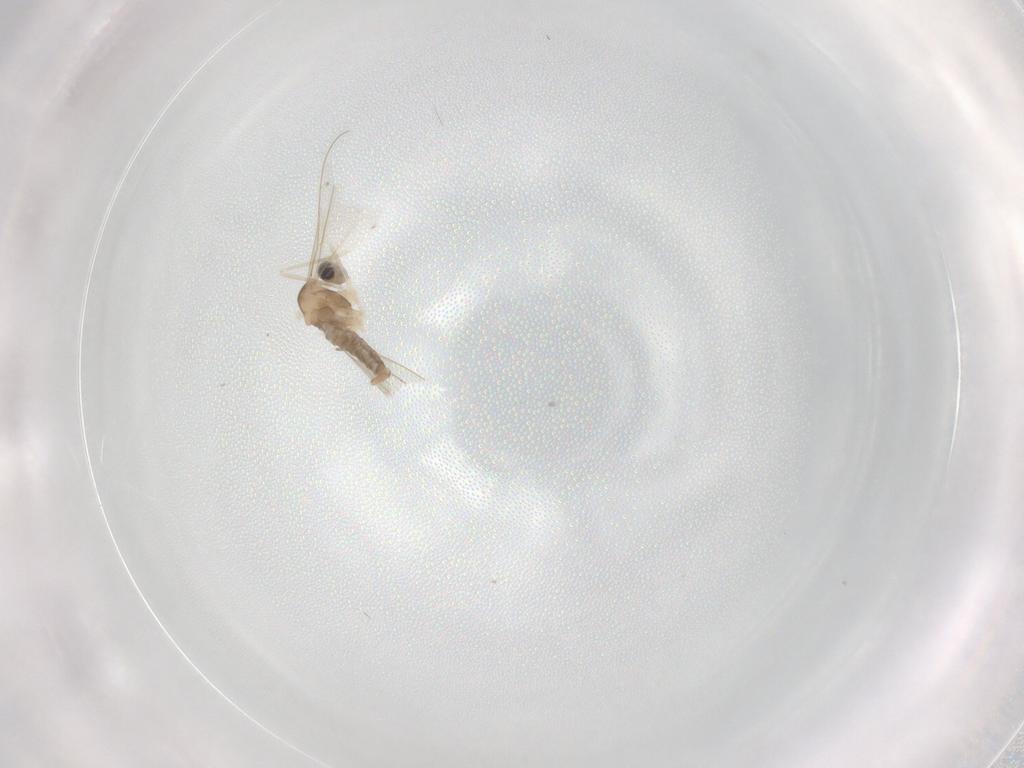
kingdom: Animalia
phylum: Arthropoda
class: Insecta
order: Diptera
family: Cecidomyiidae
